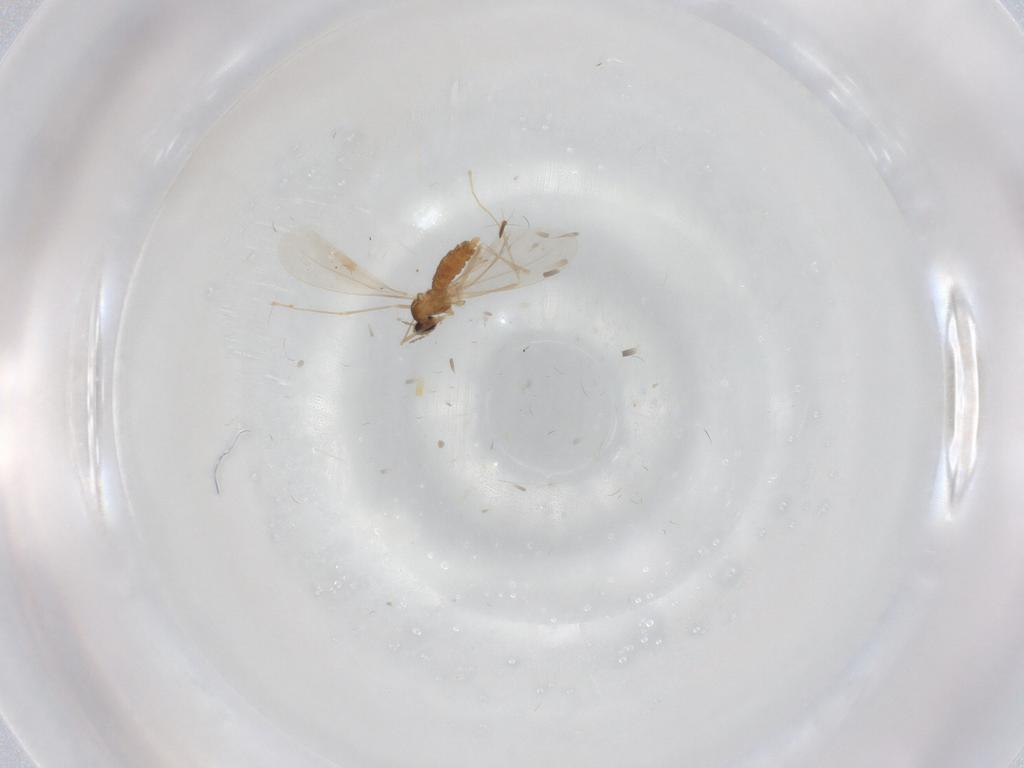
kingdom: Animalia
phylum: Arthropoda
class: Insecta
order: Diptera
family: Cecidomyiidae
